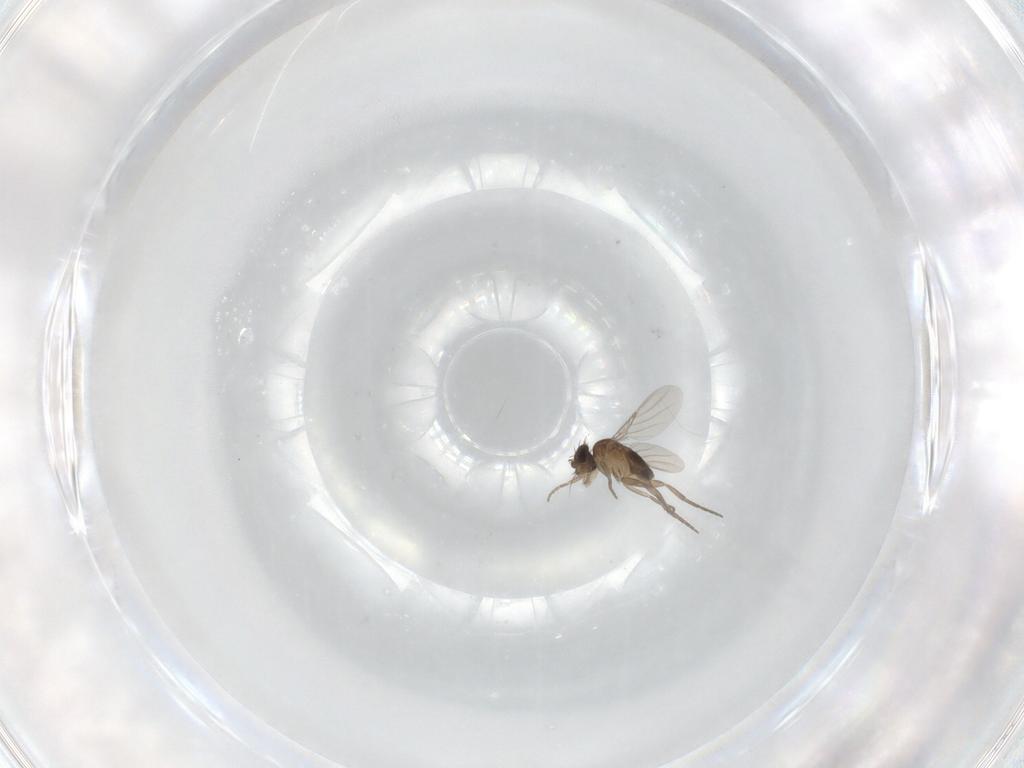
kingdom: Animalia
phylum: Arthropoda
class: Insecta
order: Diptera
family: Phoridae
